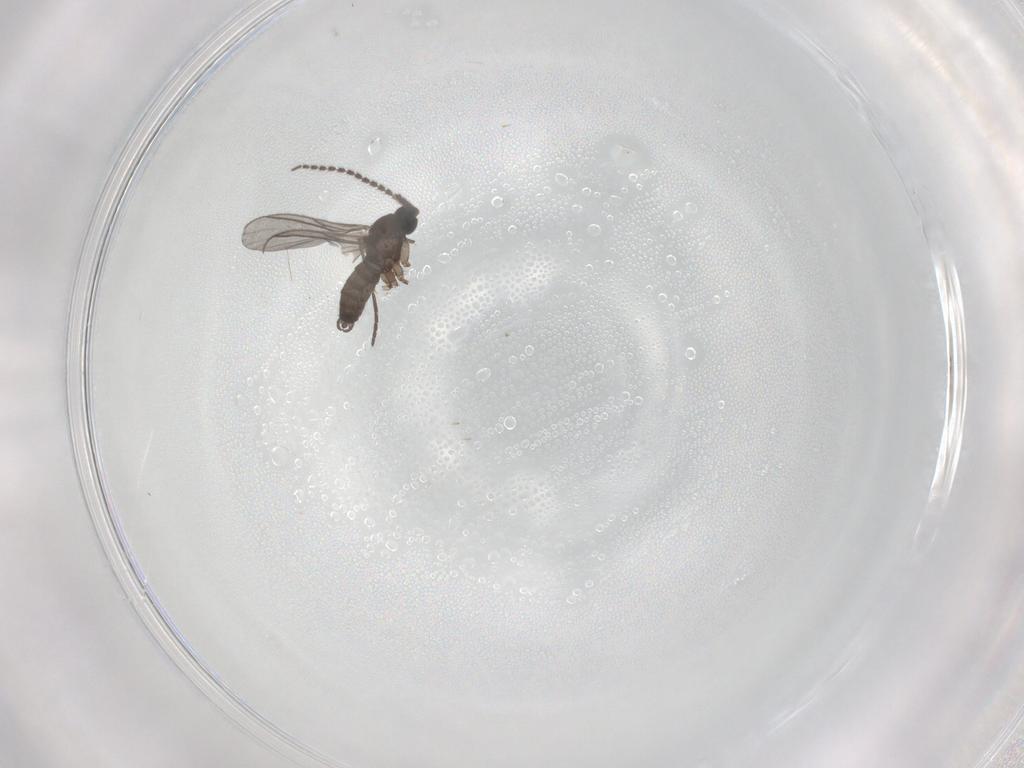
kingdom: Animalia
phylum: Arthropoda
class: Insecta
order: Diptera
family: Dolichopodidae
